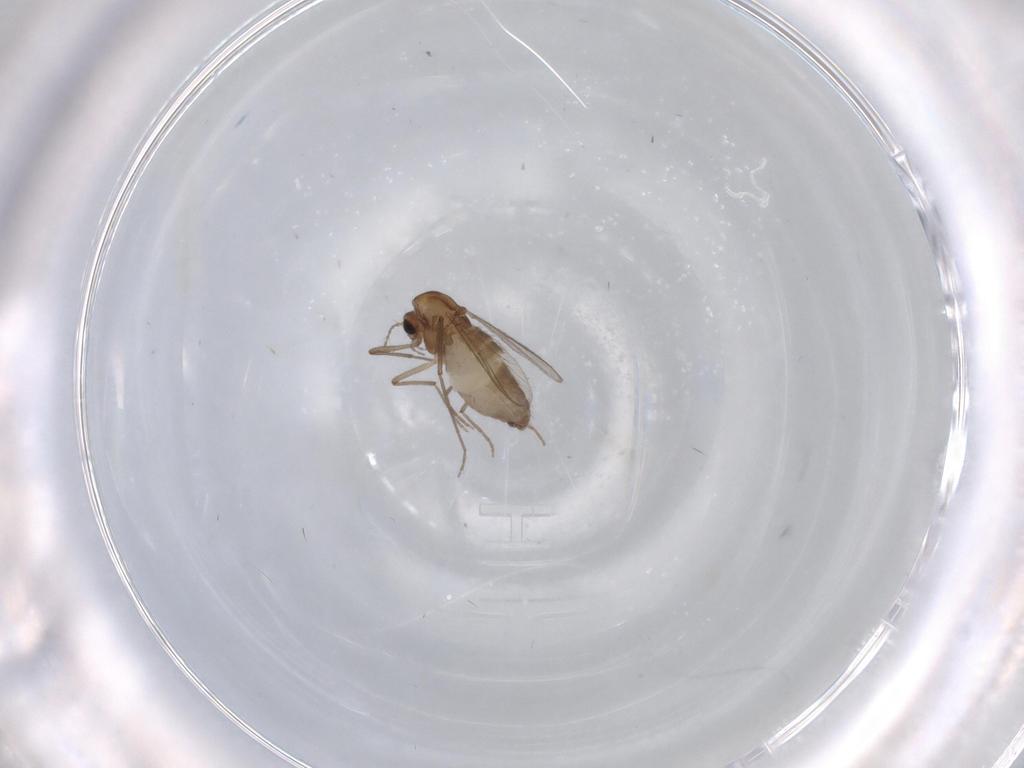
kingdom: Animalia
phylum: Arthropoda
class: Insecta
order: Diptera
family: Chironomidae
